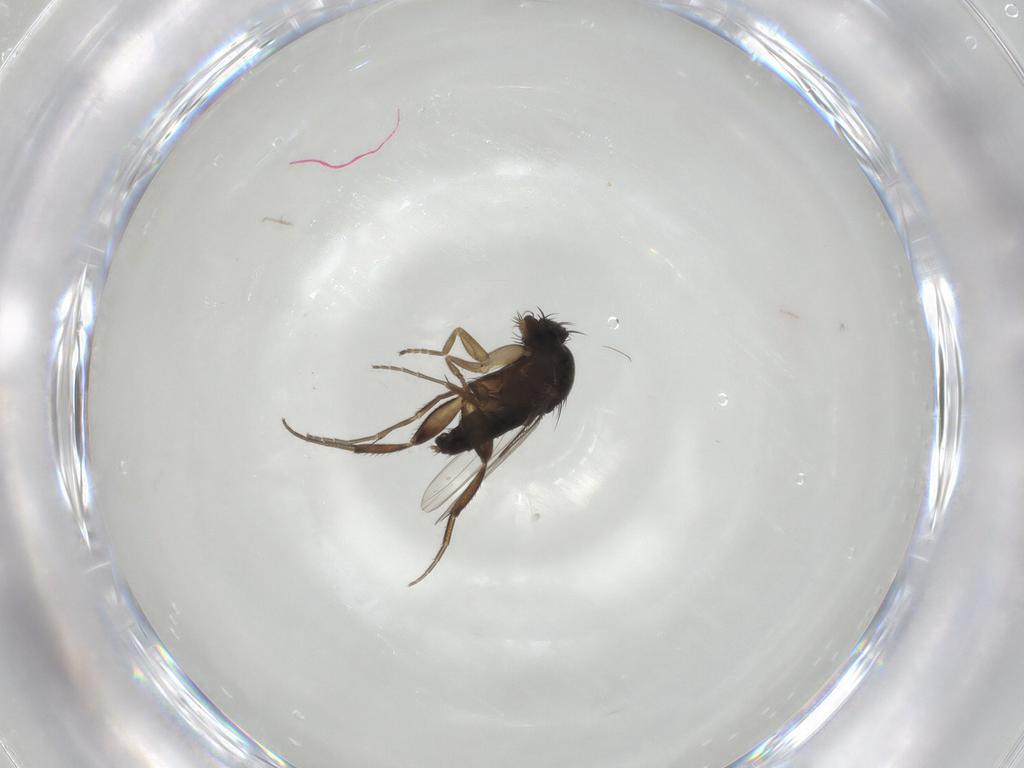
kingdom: Animalia
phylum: Arthropoda
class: Insecta
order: Diptera
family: Phoridae
